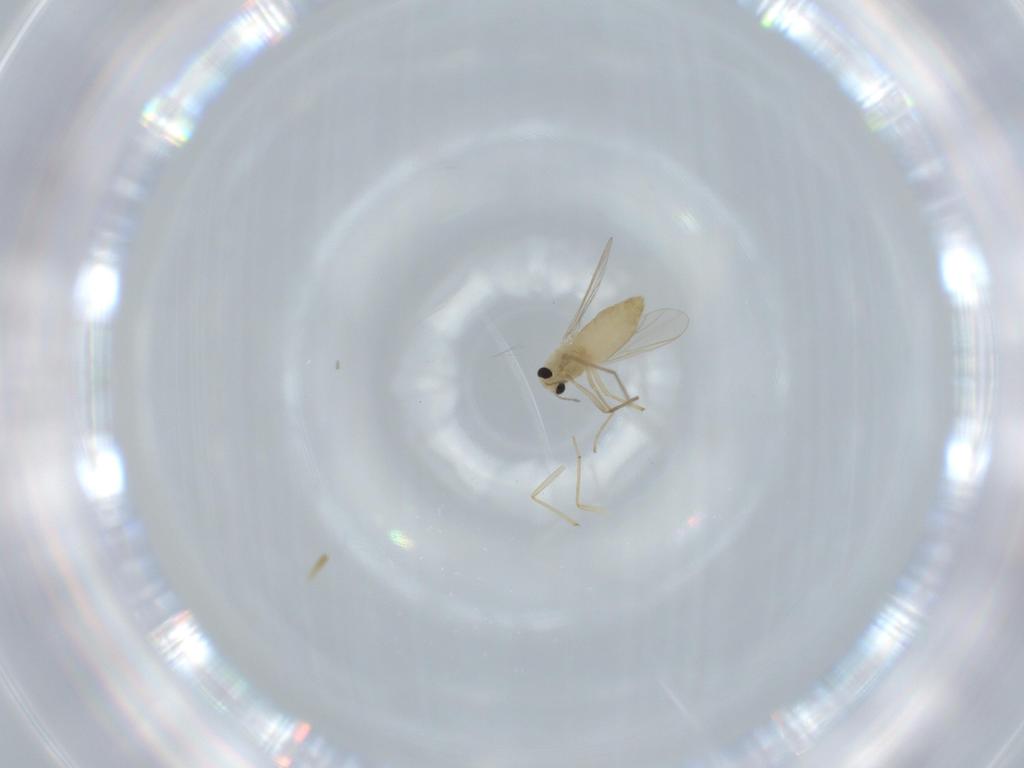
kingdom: Animalia
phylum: Arthropoda
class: Insecta
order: Diptera
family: Chironomidae
